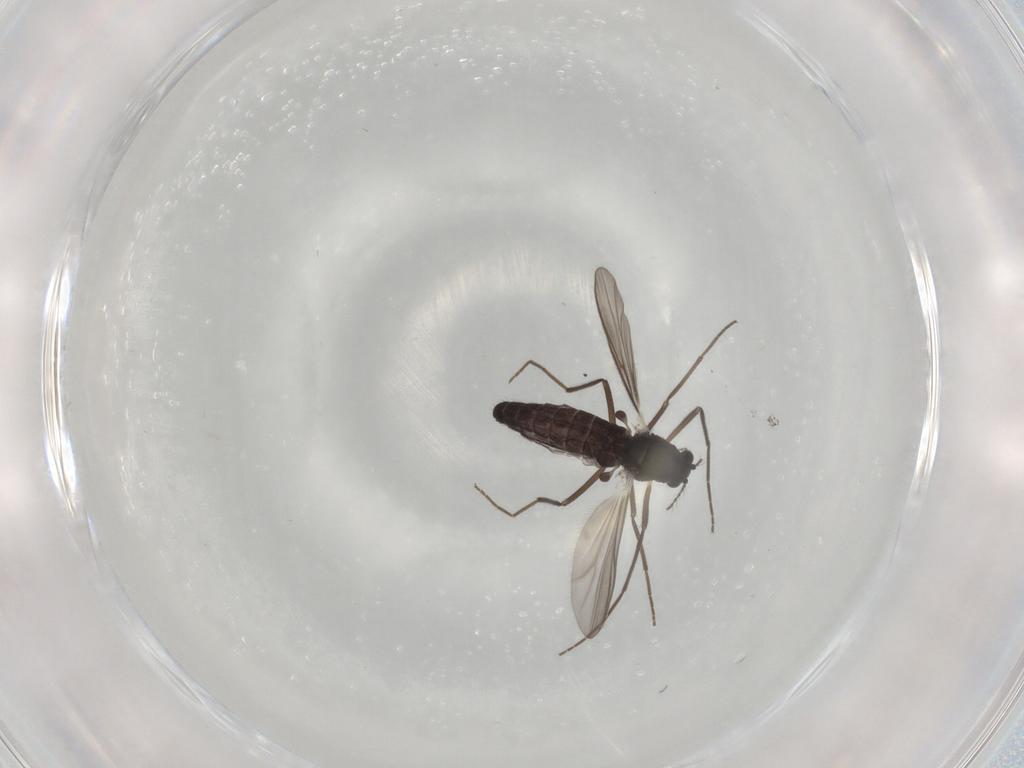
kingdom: Animalia
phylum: Arthropoda
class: Insecta
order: Diptera
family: Chironomidae
